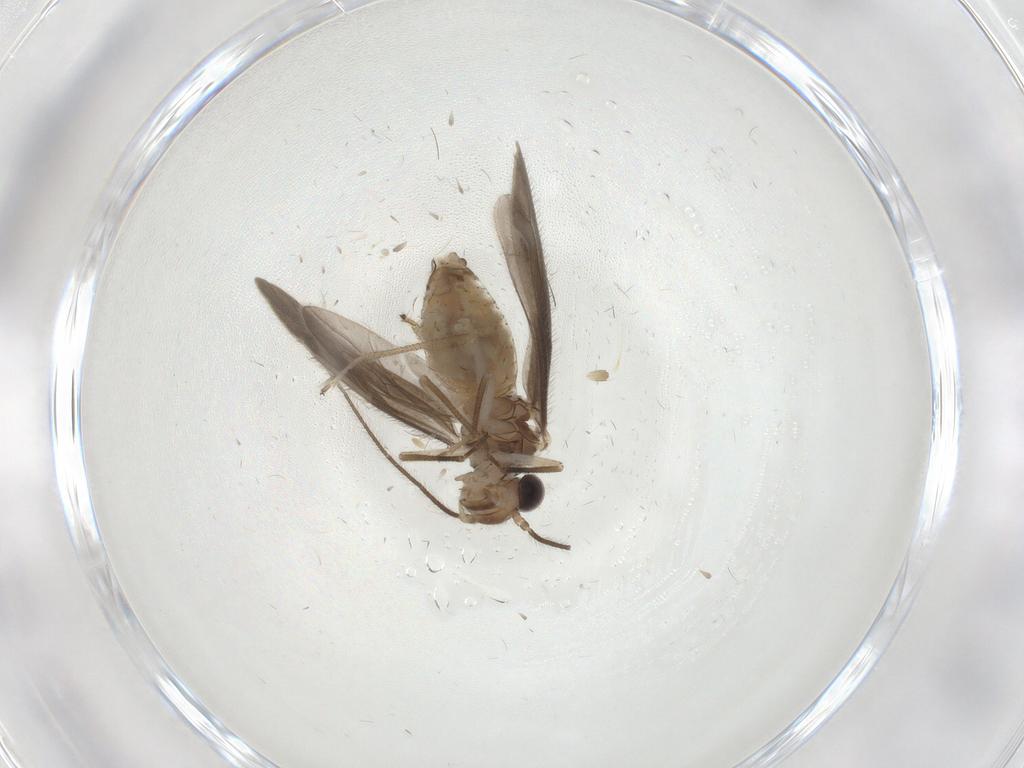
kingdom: Animalia
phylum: Arthropoda
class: Insecta
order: Psocodea
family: Caeciliusidae
